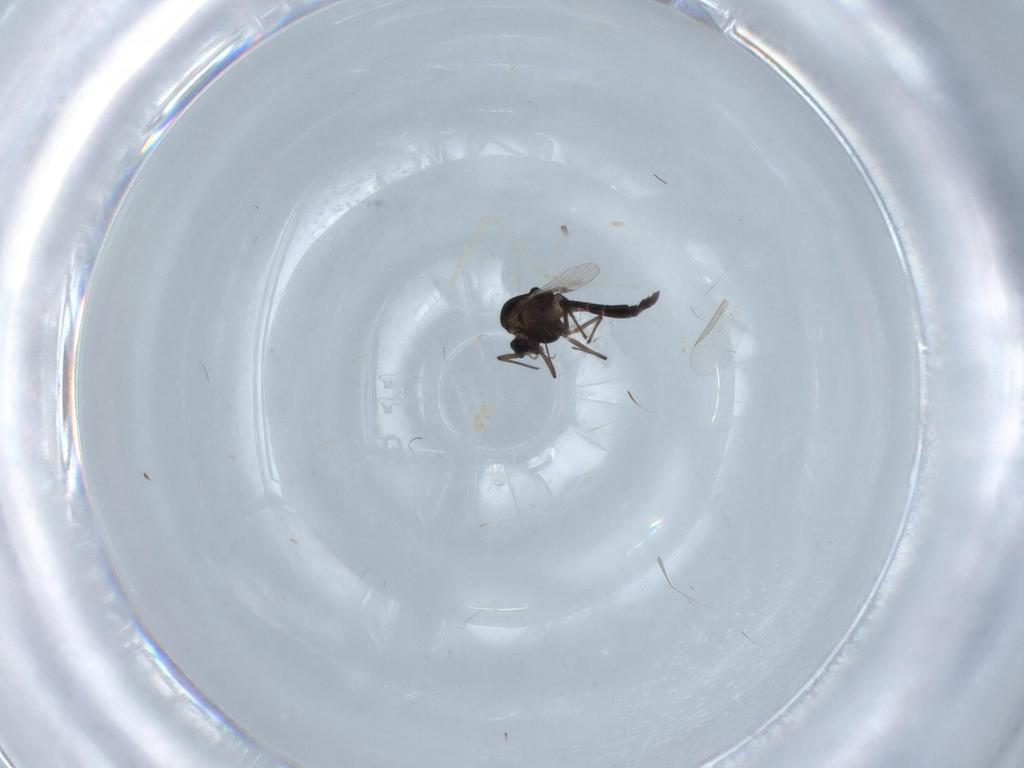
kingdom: Animalia
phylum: Arthropoda
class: Insecta
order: Diptera
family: Chironomidae
